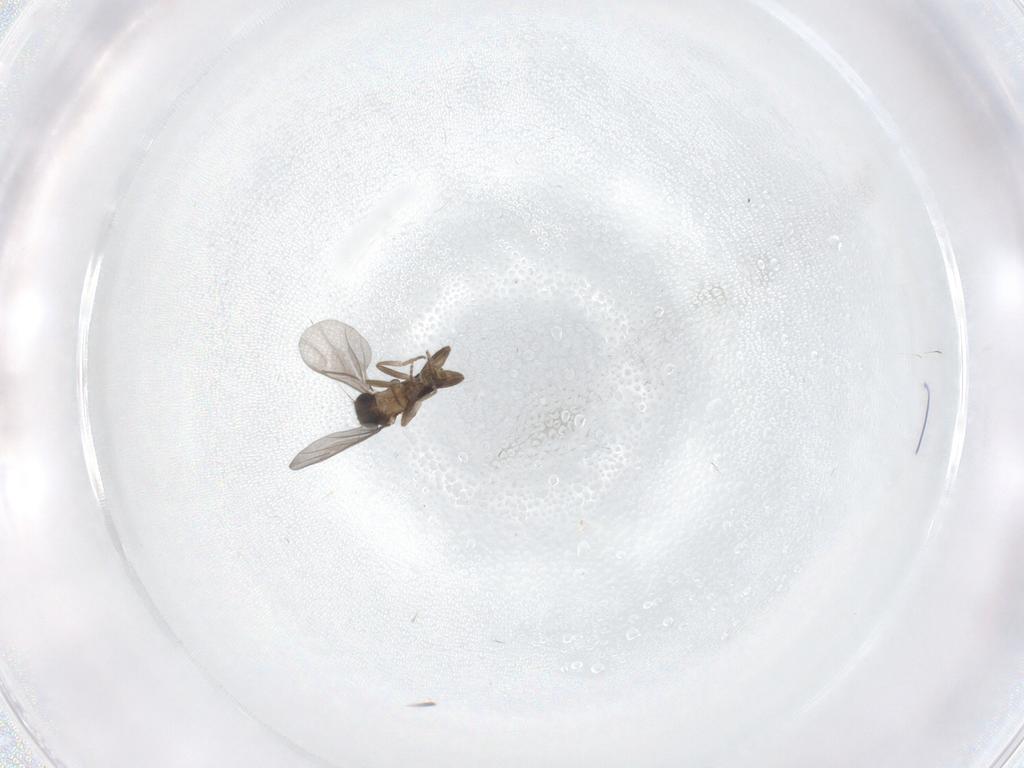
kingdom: Animalia
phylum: Arthropoda
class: Insecta
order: Diptera
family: Phoridae
